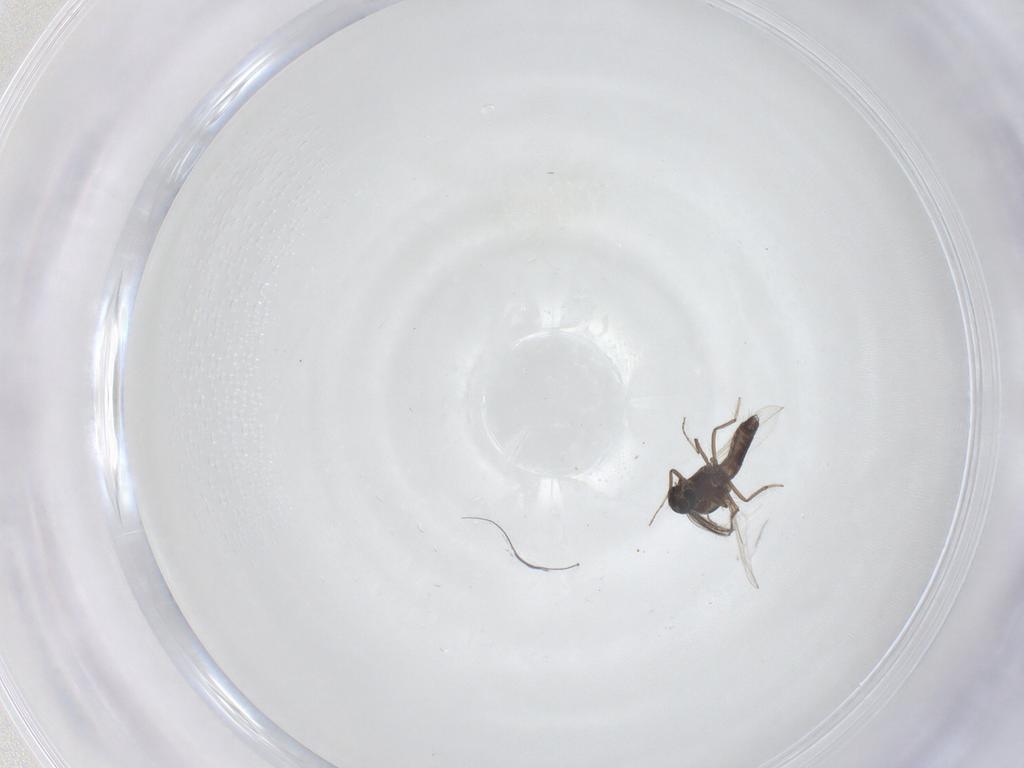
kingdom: Animalia
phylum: Arthropoda
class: Insecta
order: Diptera
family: Ceratopogonidae
